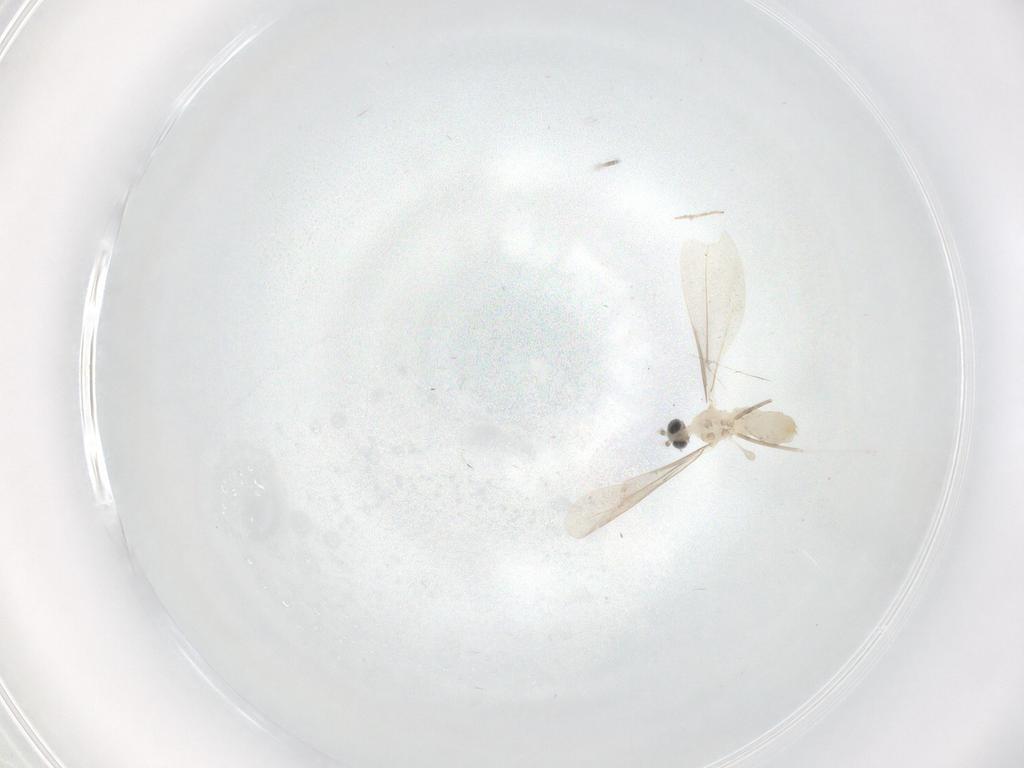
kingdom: Animalia
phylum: Arthropoda
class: Insecta
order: Diptera
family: Cecidomyiidae
